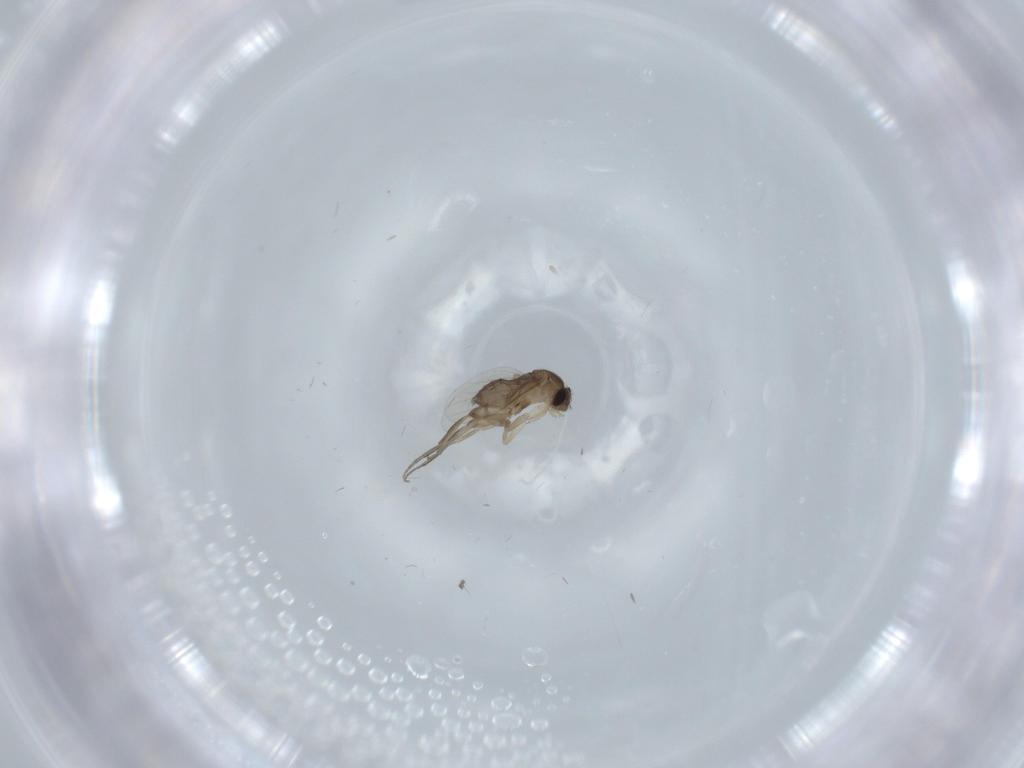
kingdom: Animalia
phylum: Arthropoda
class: Insecta
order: Diptera
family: Phoridae
